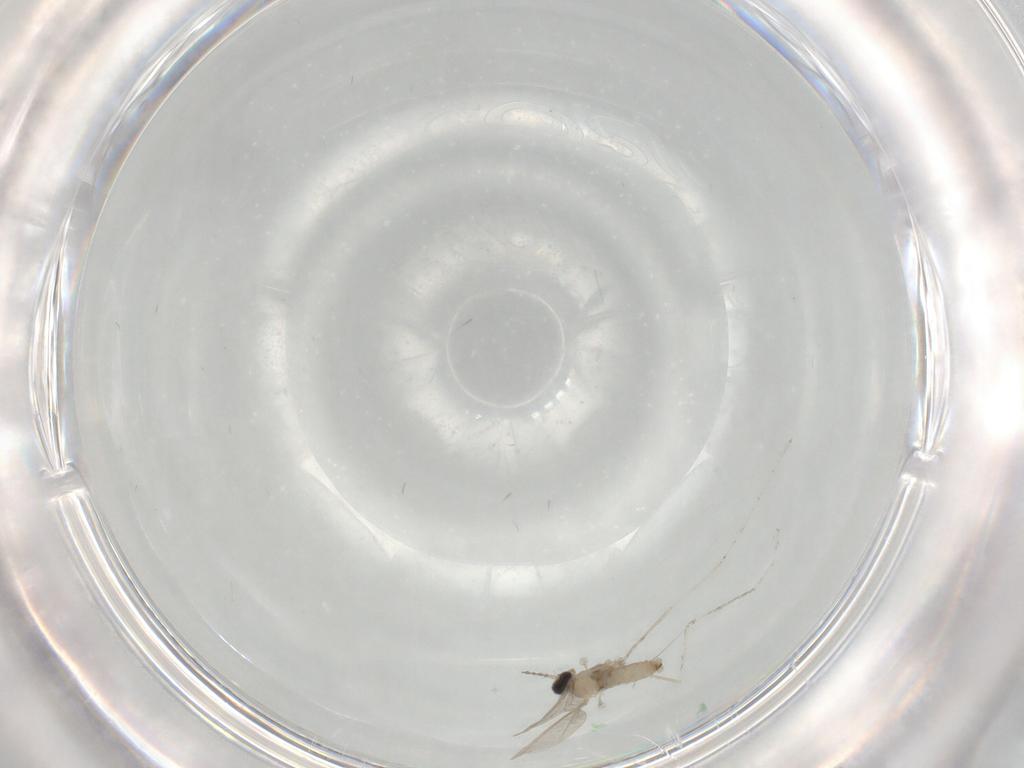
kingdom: Animalia
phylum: Arthropoda
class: Insecta
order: Diptera
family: Cecidomyiidae
